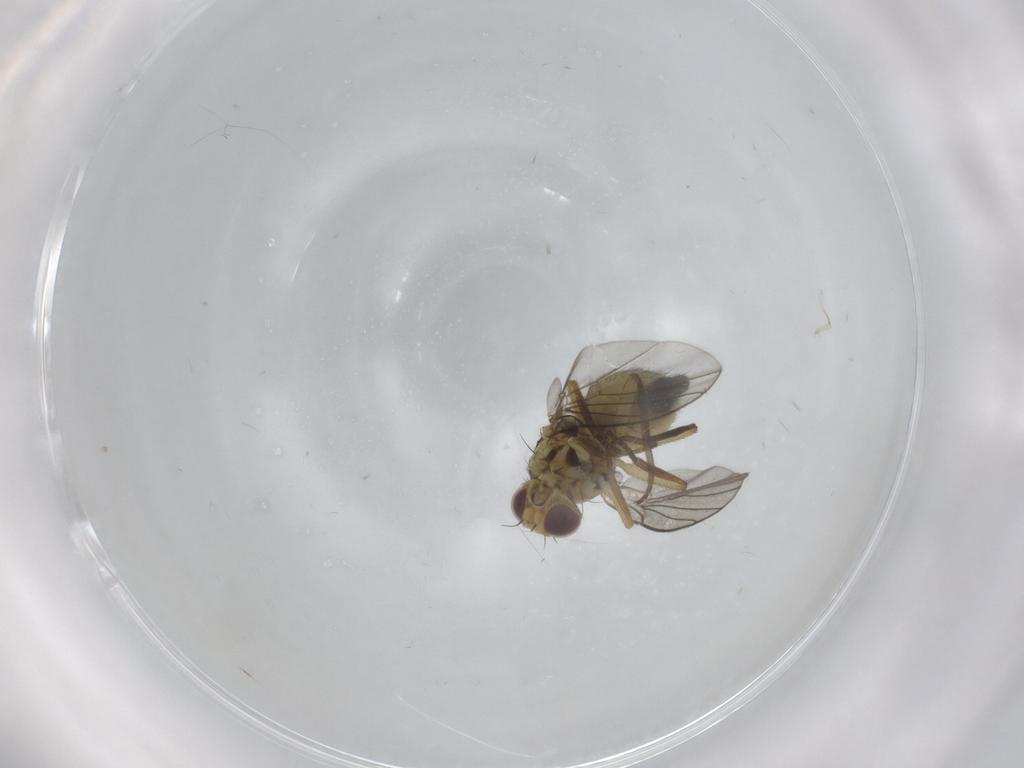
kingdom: Animalia
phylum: Arthropoda
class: Insecta
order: Diptera
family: Agromyzidae
